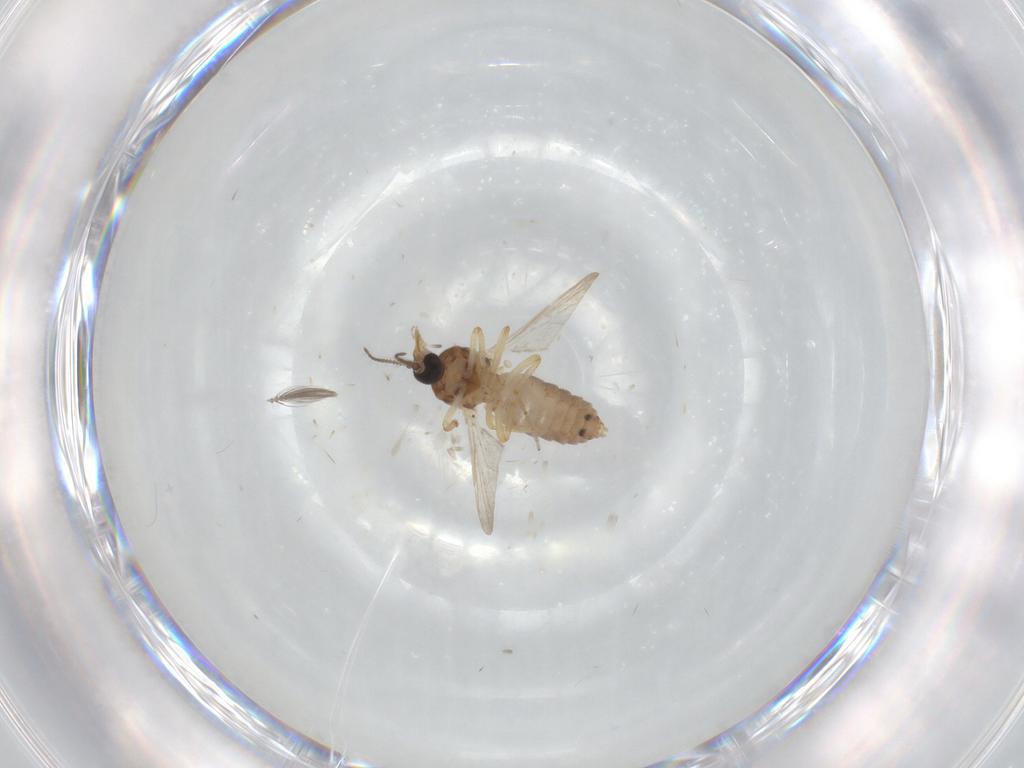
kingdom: Animalia
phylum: Arthropoda
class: Insecta
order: Diptera
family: Ceratopogonidae
